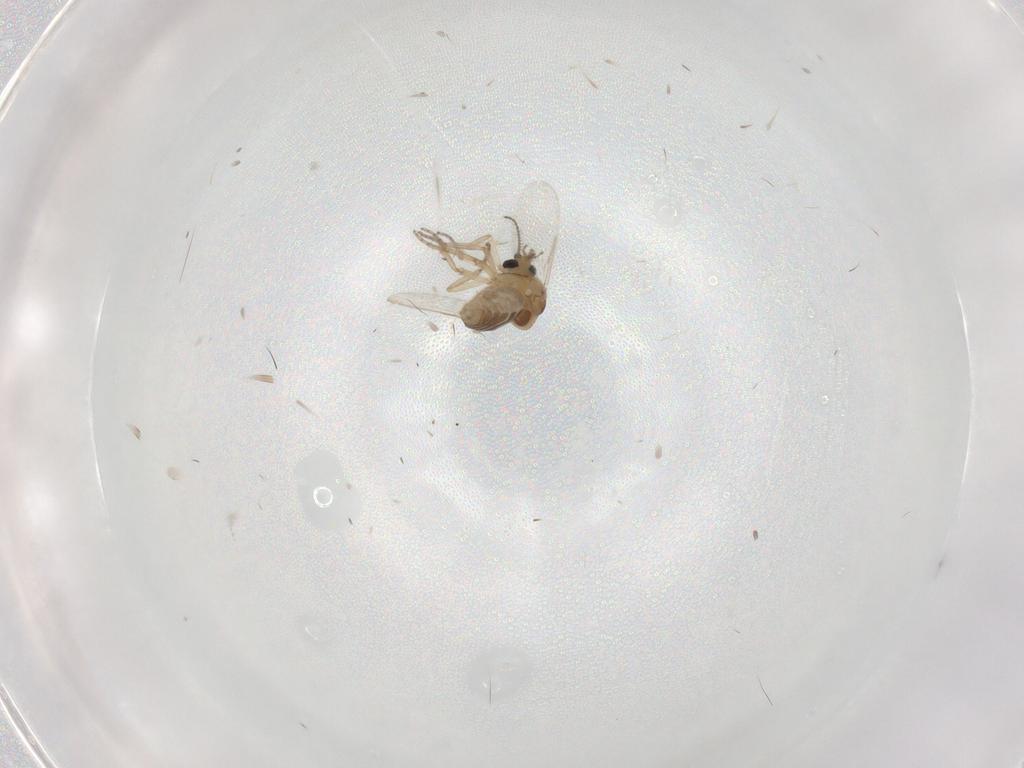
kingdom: Animalia
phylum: Arthropoda
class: Insecta
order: Diptera
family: Ceratopogonidae
